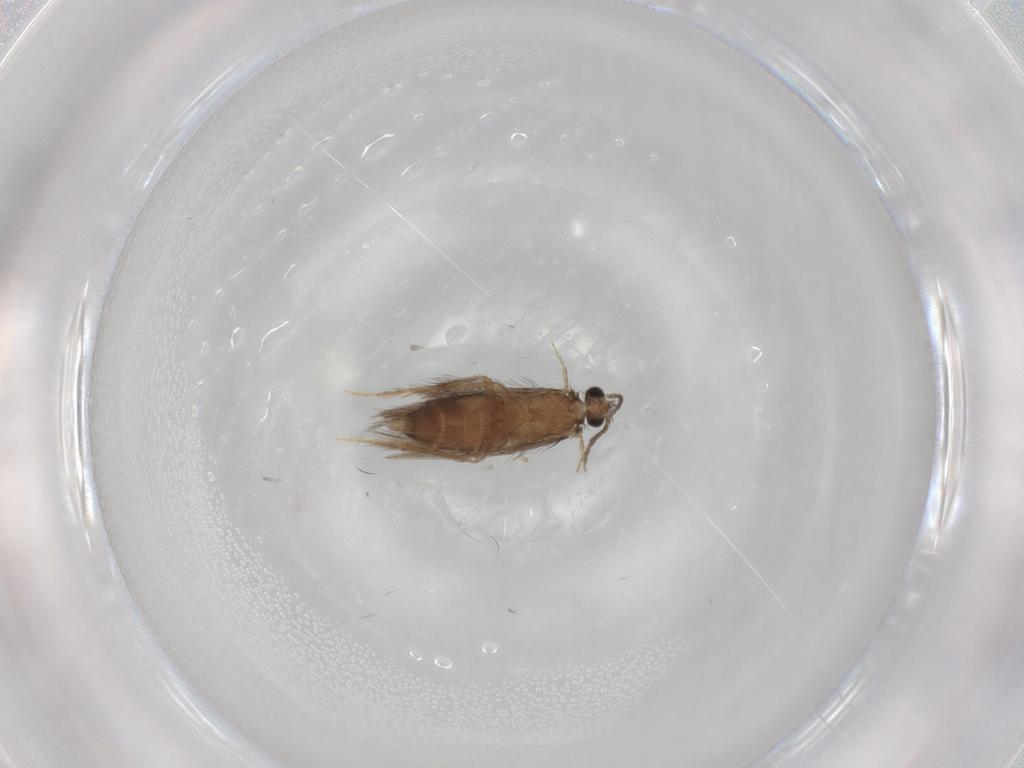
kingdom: Animalia
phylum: Arthropoda
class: Insecta
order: Trichoptera
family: Hydroptilidae
